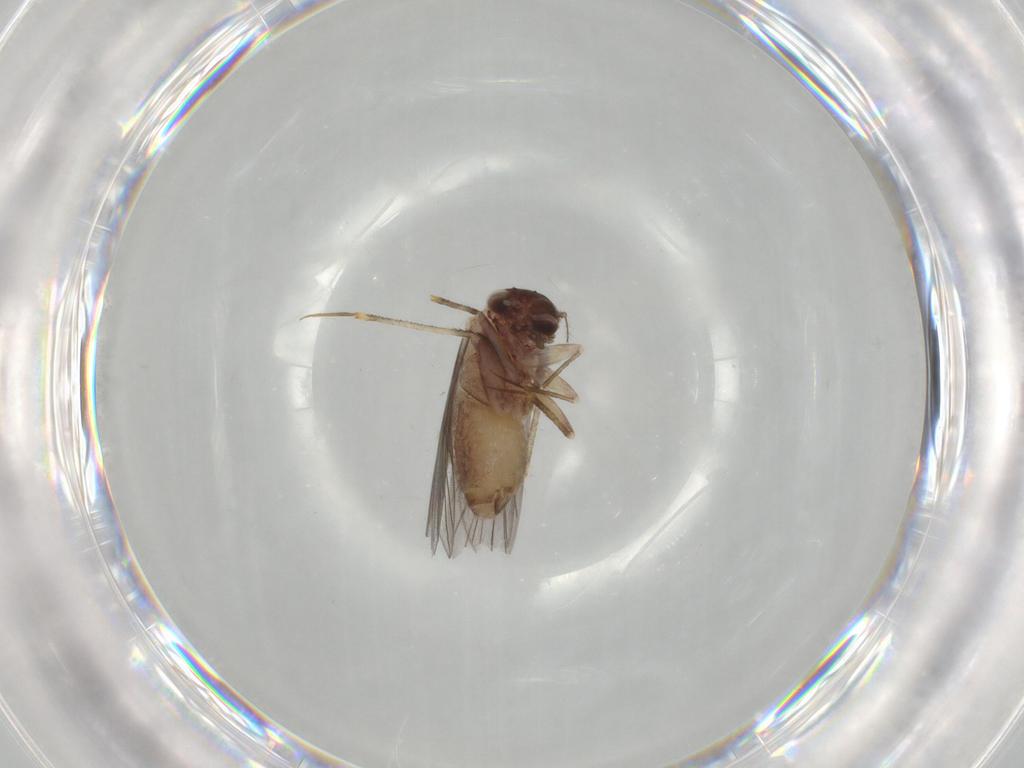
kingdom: Animalia
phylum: Arthropoda
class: Insecta
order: Psocodea
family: Lepidopsocidae
